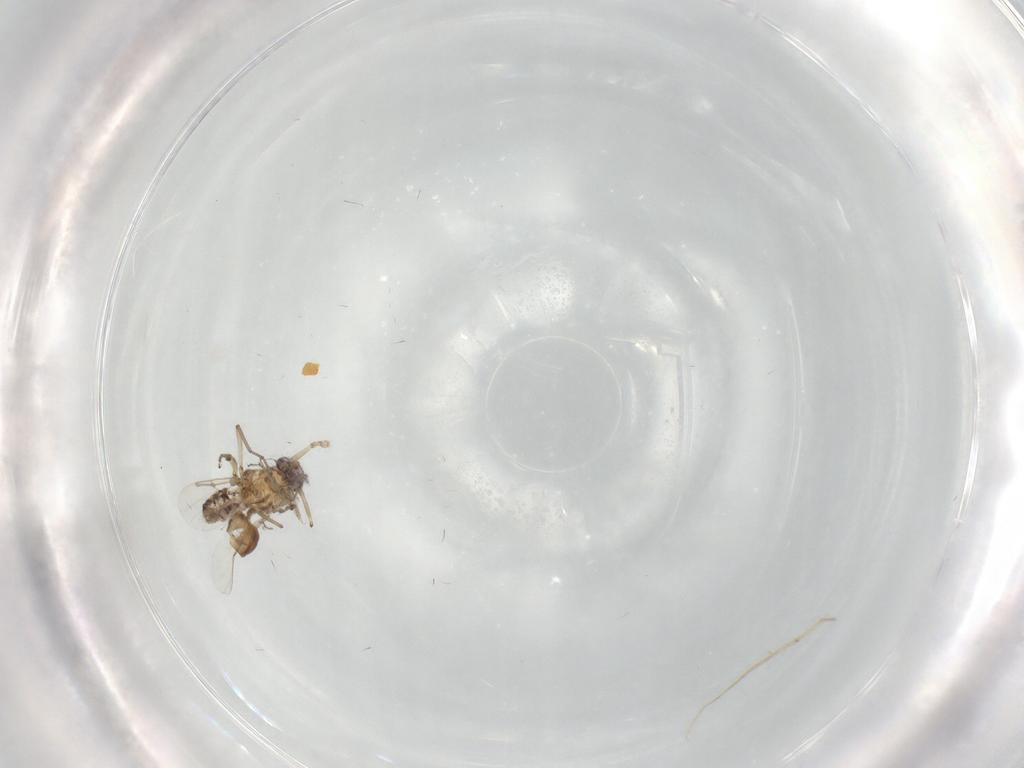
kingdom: Animalia
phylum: Arthropoda
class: Insecta
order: Diptera
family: Ceratopogonidae
